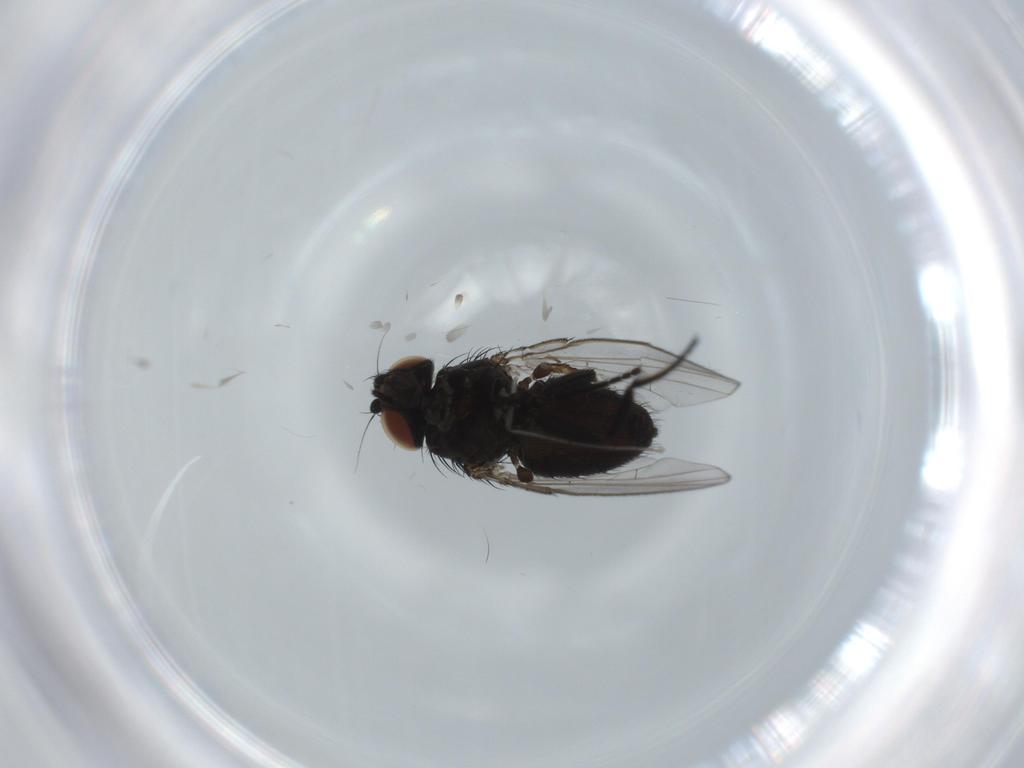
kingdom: Animalia
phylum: Arthropoda
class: Insecta
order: Diptera
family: Milichiidae
